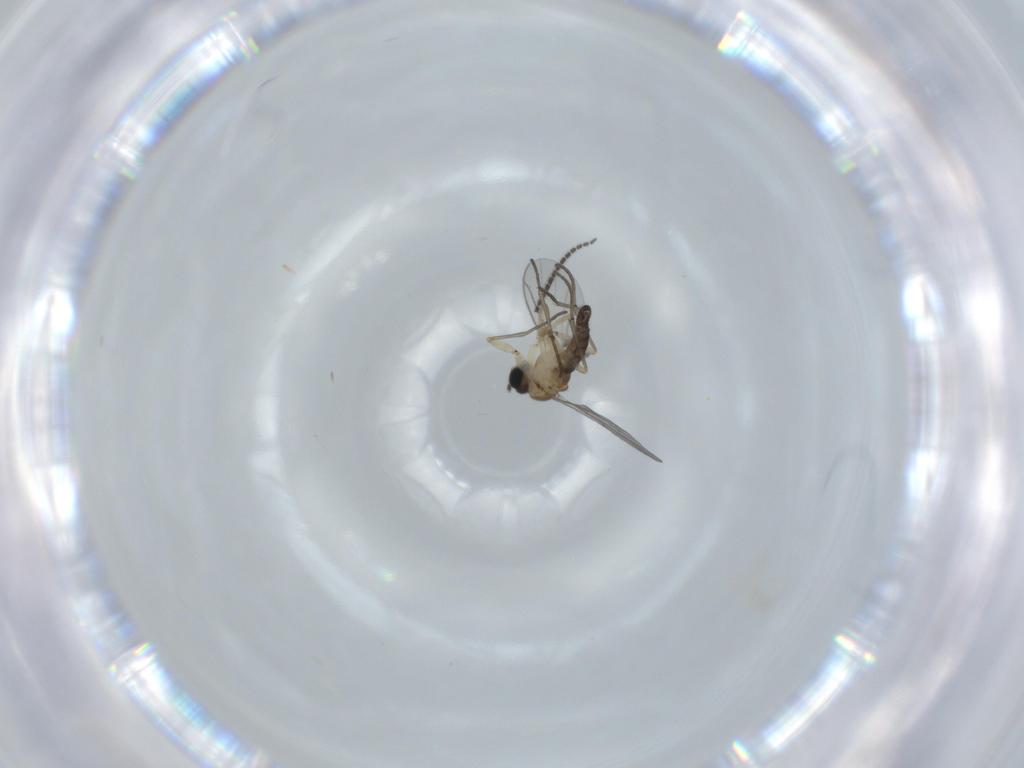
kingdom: Animalia
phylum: Arthropoda
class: Insecta
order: Diptera
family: Sciaridae
